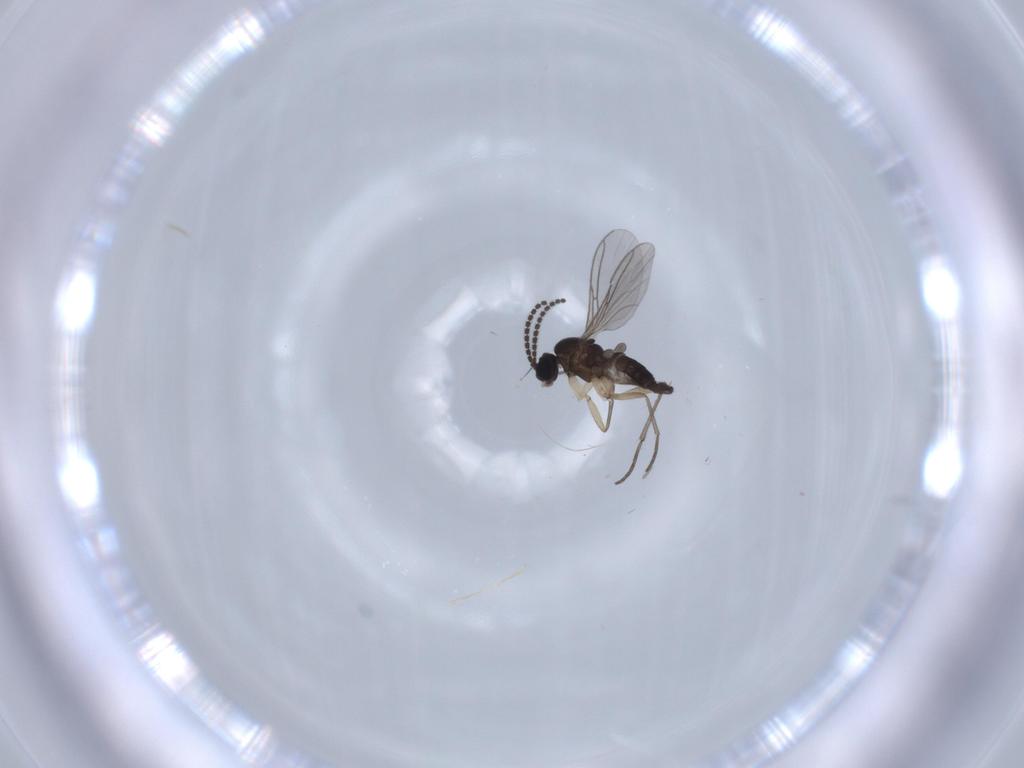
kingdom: Animalia
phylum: Arthropoda
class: Insecta
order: Diptera
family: Sciaridae
